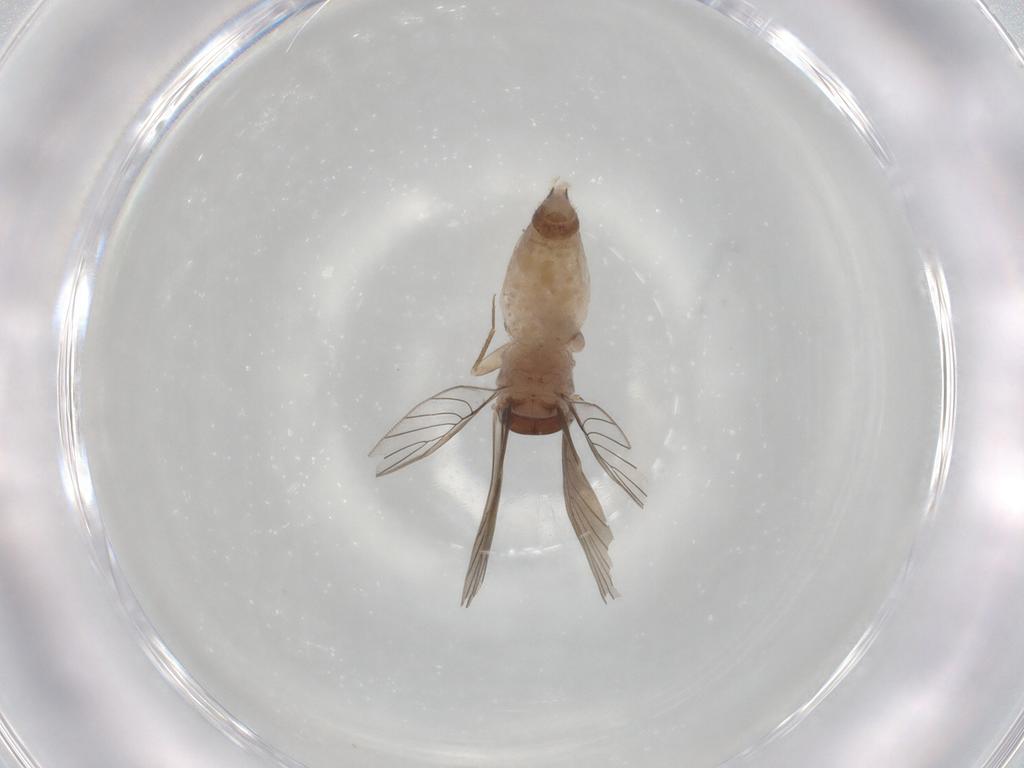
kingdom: Animalia
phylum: Arthropoda
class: Insecta
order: Psocodea
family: Lepidopsocidae
